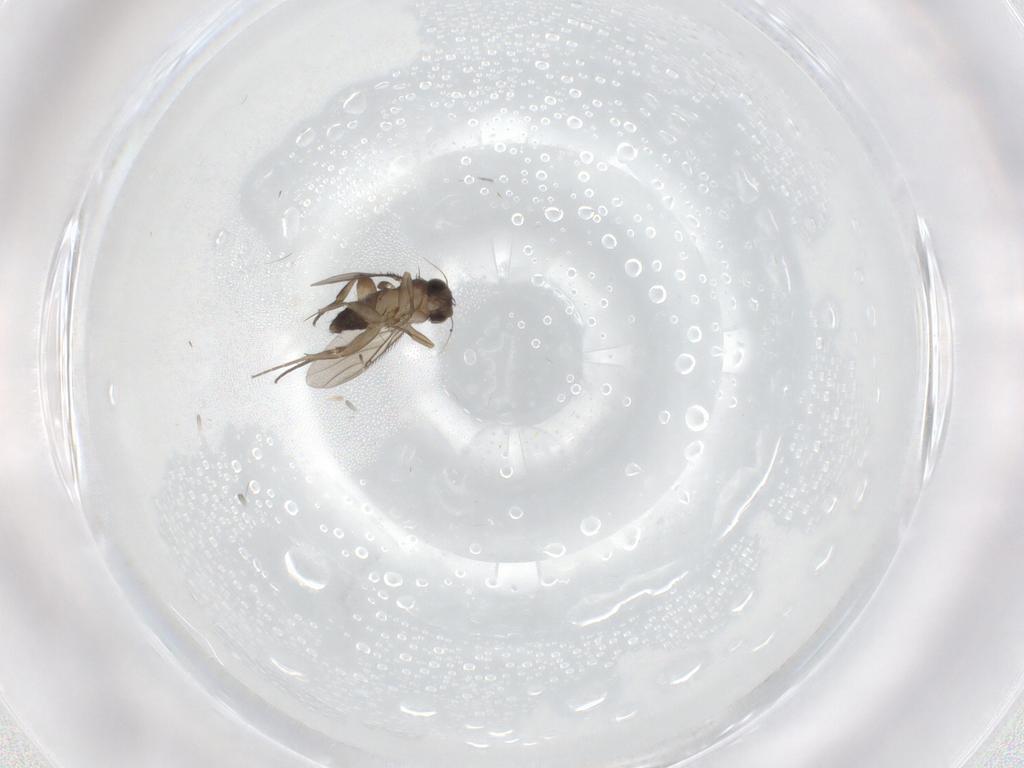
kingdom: Animalia
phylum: Arthropoda
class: Insecta
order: Diptera
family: Phoridae
